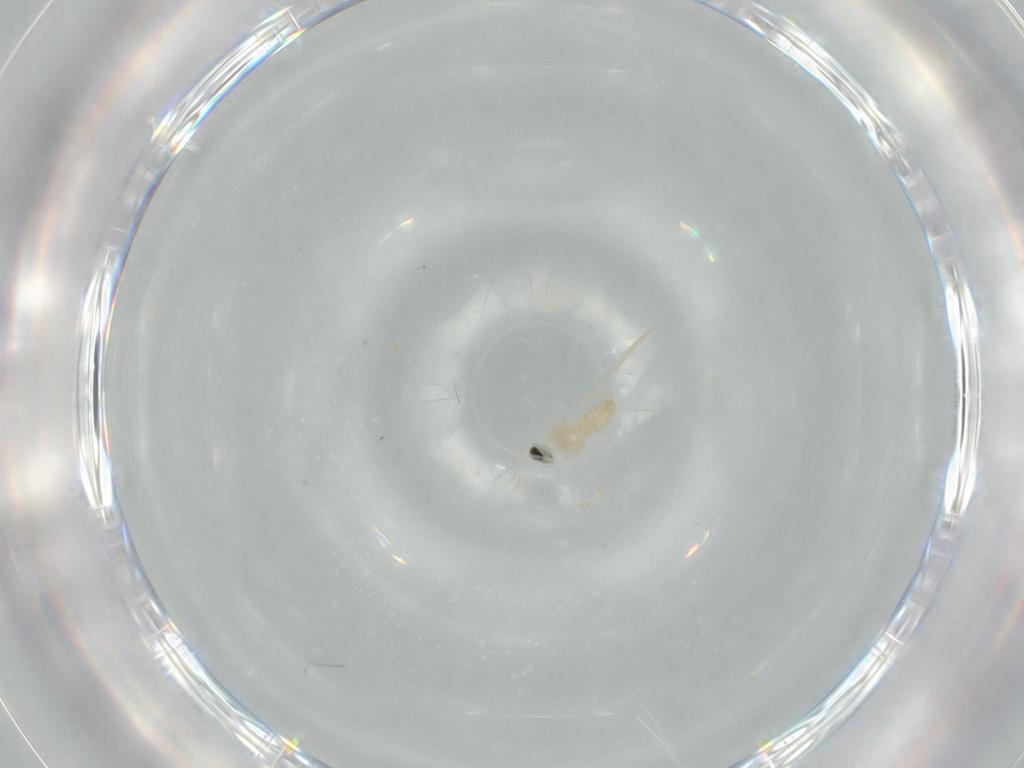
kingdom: Animalia
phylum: Arthropoda
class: Insecta
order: Diptera
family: Cecidomyiidae
